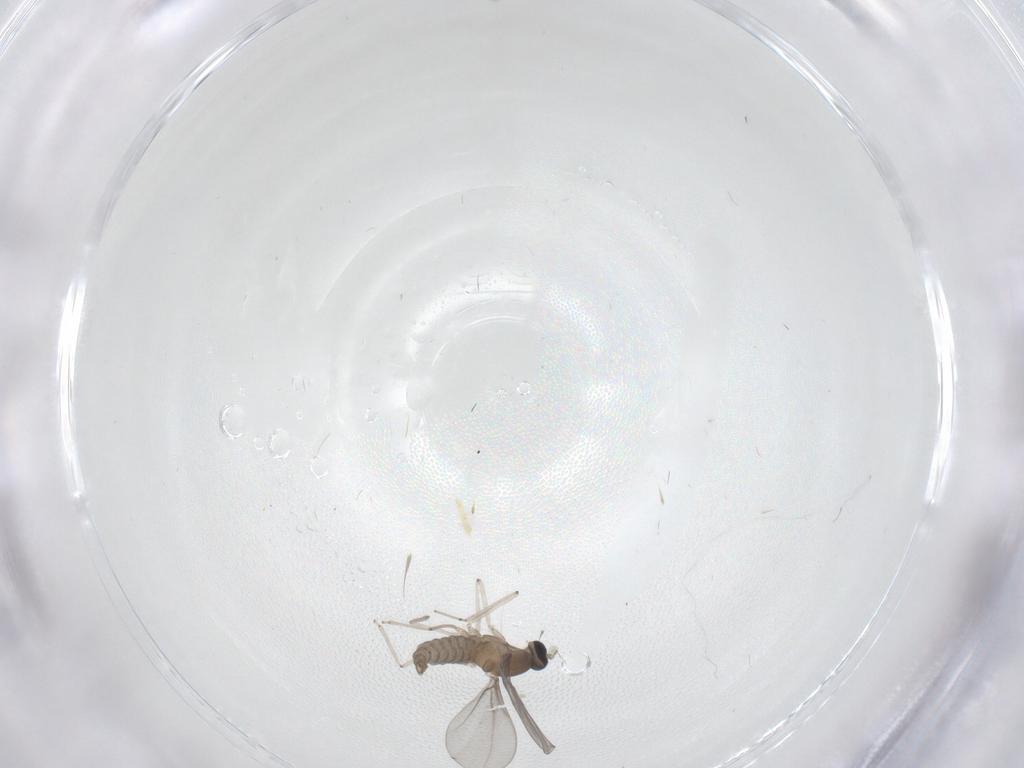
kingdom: Animalia
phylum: Arthropoda
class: Insecta
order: Diptera
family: Cecidomyiidae
